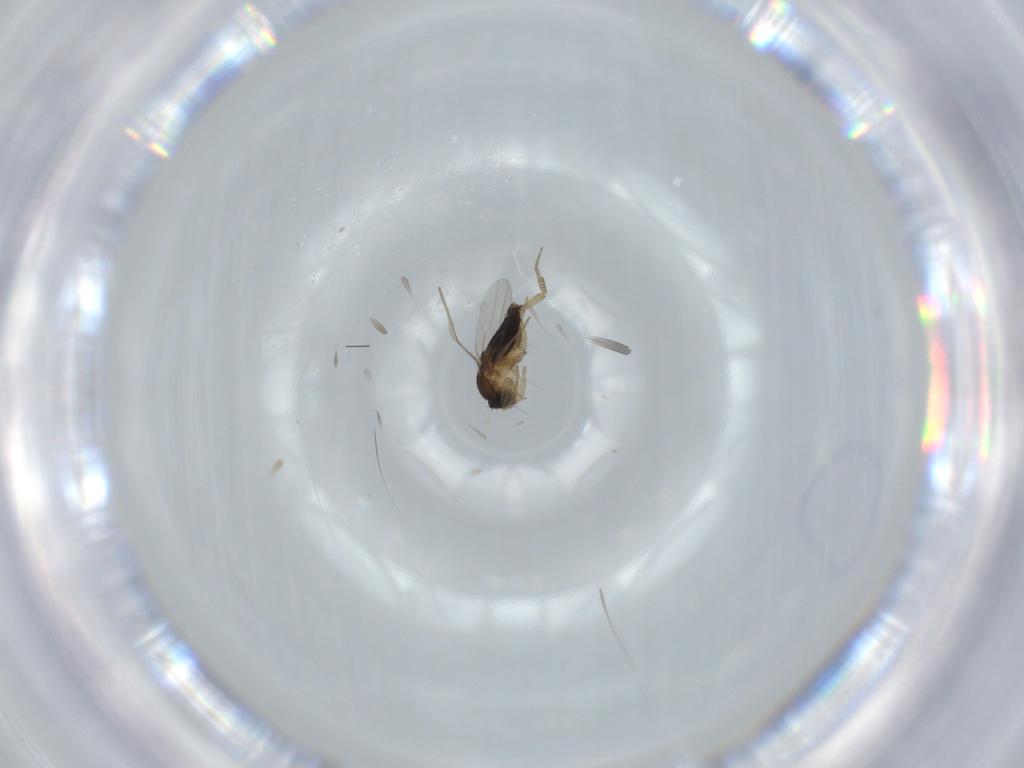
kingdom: Animalia
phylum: Arthropoda
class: Insecta
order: Diptera
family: Phoridae
